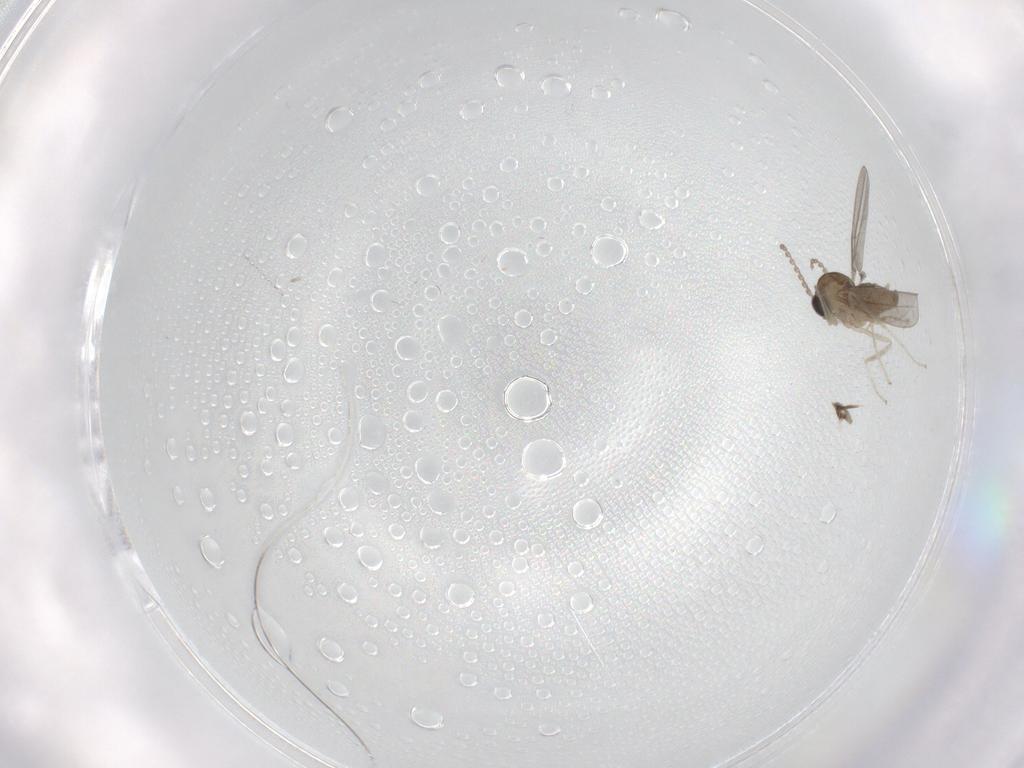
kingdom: Animalia
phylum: Arthropoda
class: Insecta
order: Diptera
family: Cecidomyiidae
